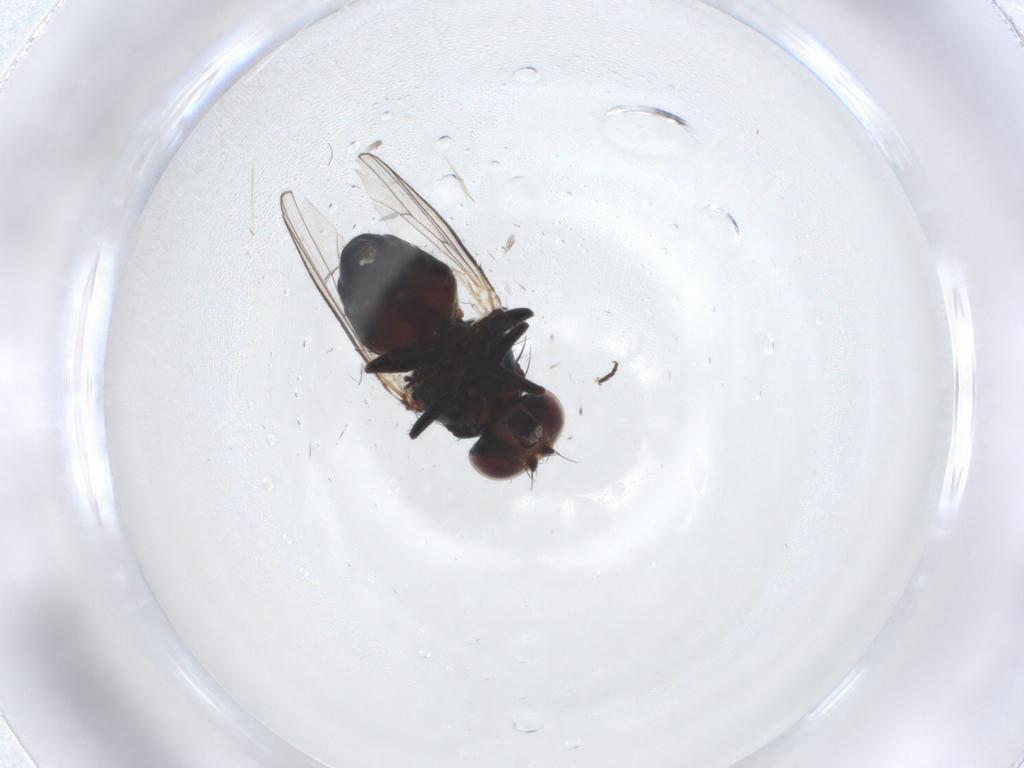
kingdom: Animalia
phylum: Arthropoda
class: Insecta
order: Diptera
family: Carnidae
